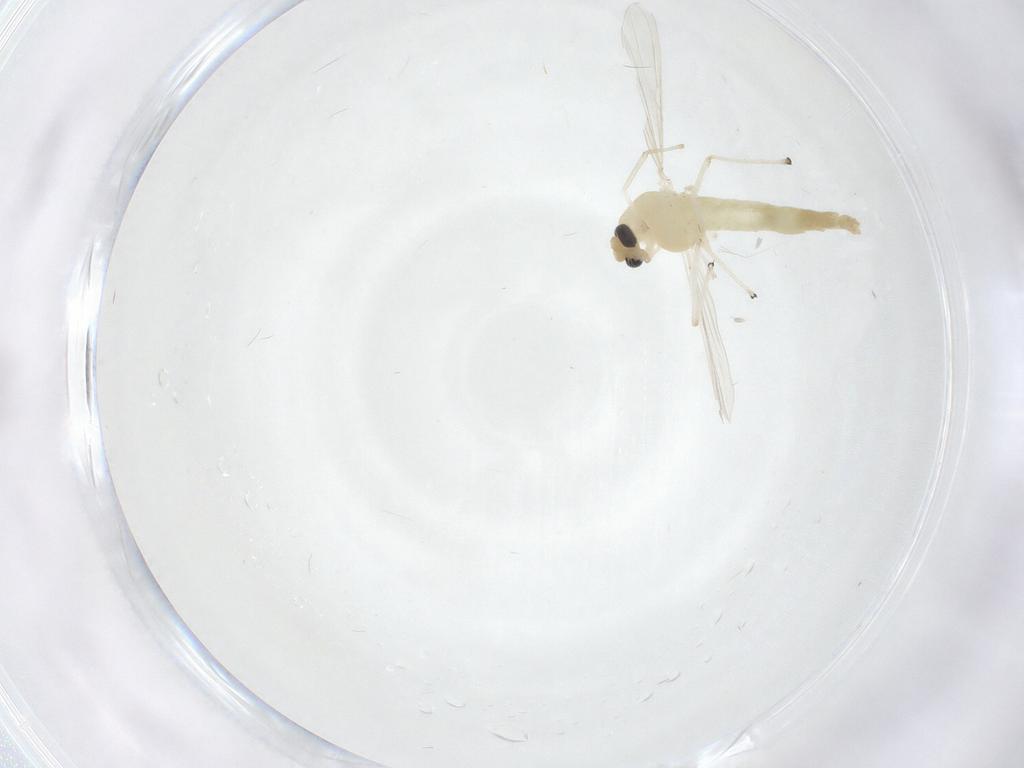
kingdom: Animalia
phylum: Arthropoda
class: Insecta
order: Diptera
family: Chironomidae
